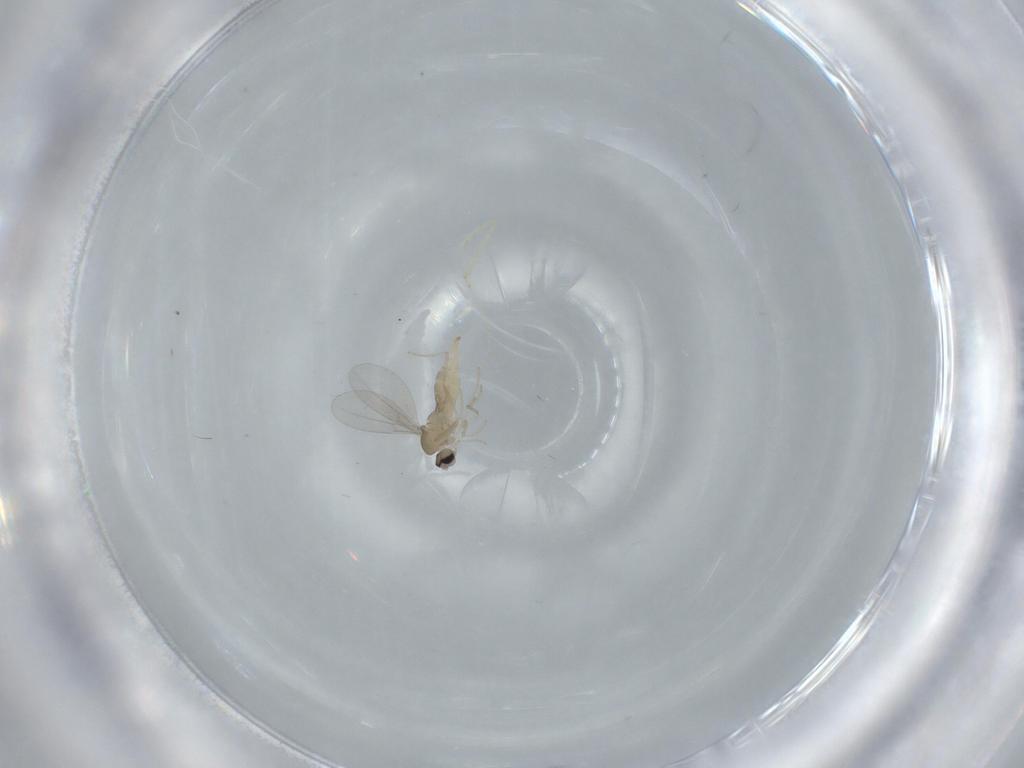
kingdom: Animalia
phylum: Arthropoda
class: Insecta
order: Diptera
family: Cecidomyiidae
